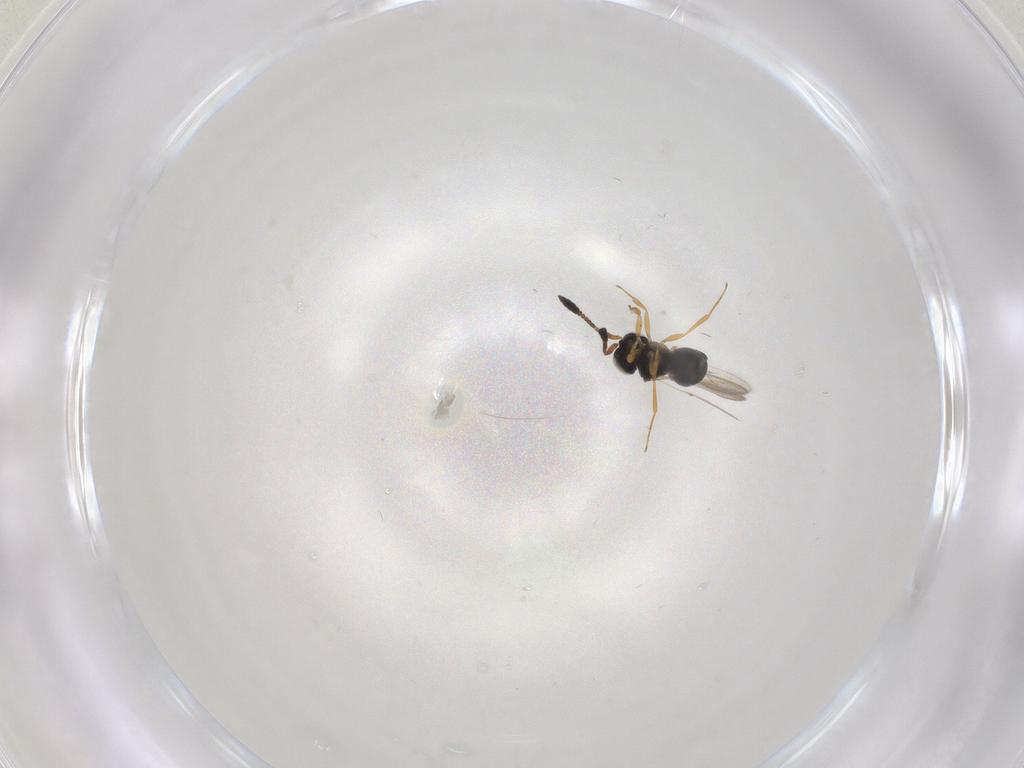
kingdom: Animalia
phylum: Arthropoda
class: Insecta
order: Hymenoptera
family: Scelionidae
